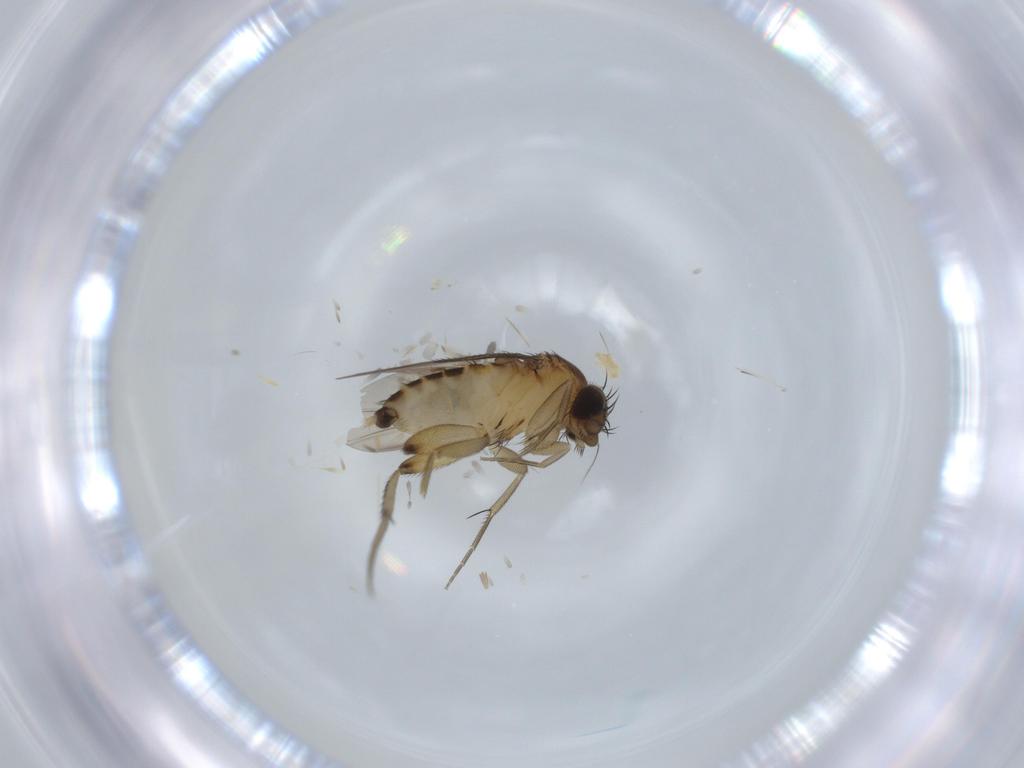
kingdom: Animalia
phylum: Arthropoda
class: Insecta
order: Diptera
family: Phoridae
